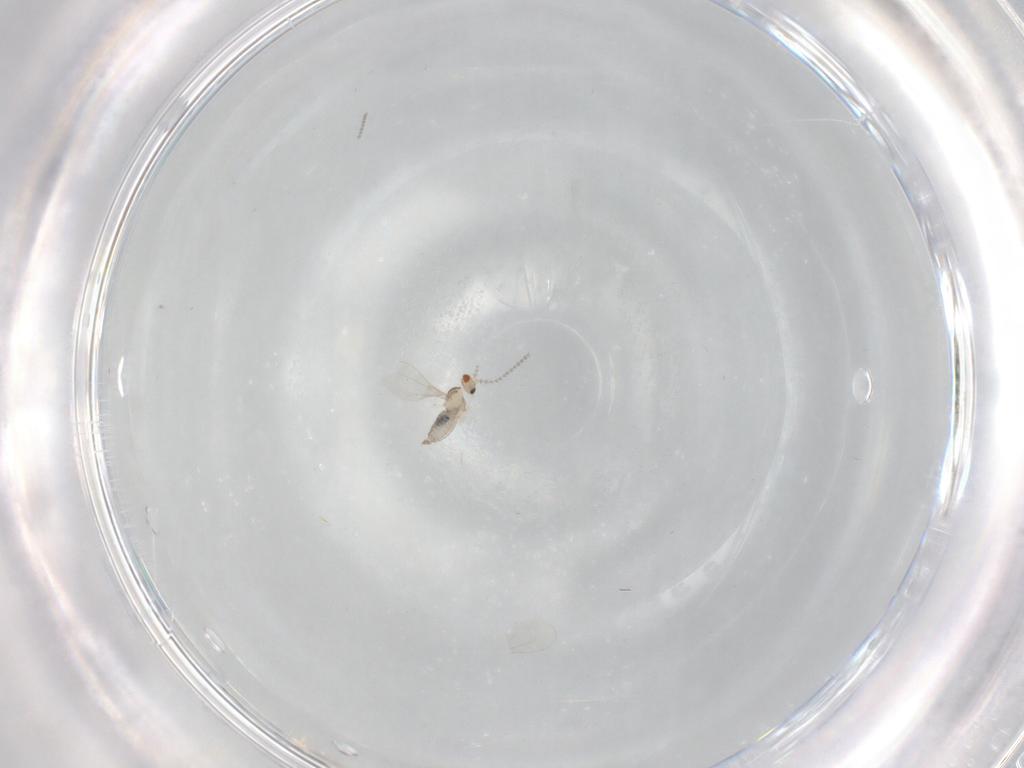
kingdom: Animalia
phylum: Arthropoda
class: Insecta
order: Diptera
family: Cecidomyiidae
